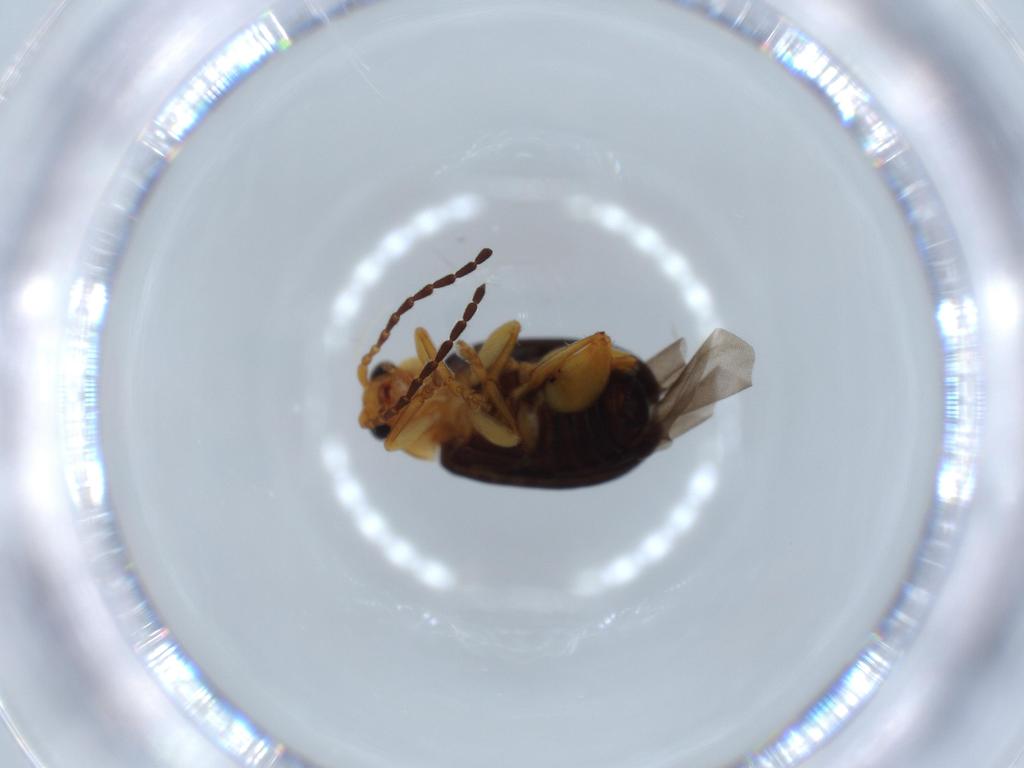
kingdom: Animalia
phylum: Arthropoda
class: Insecta
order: Coleoptera
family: Chrysomelidae
